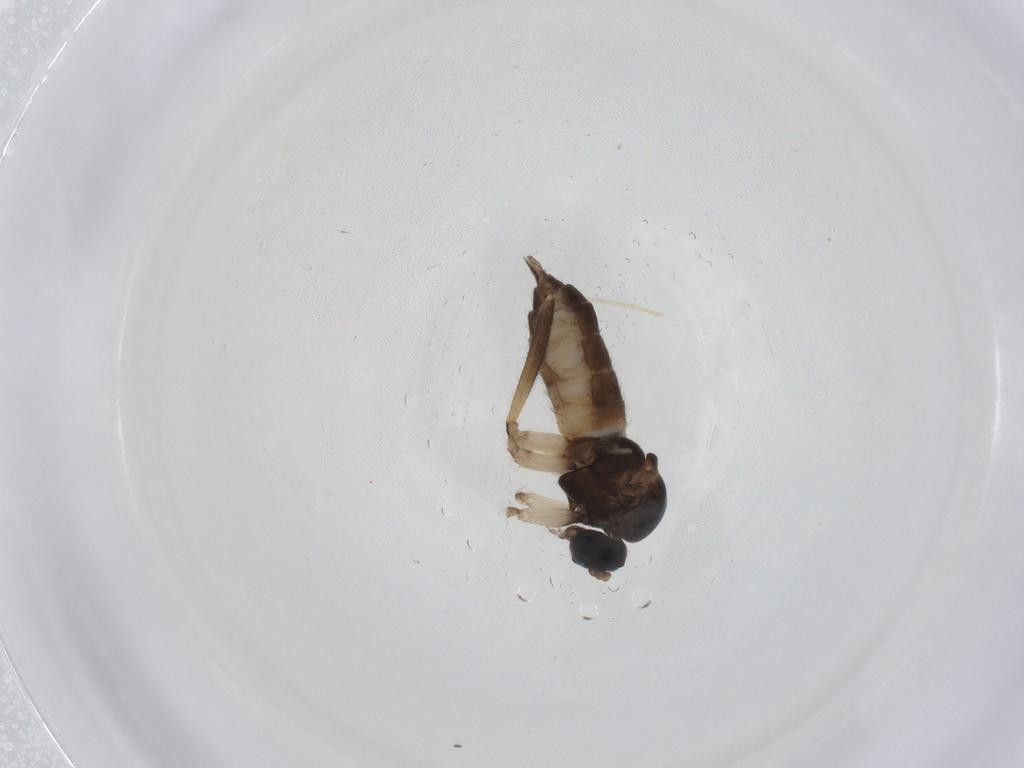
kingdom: Animalia
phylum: Arthropoda
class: Insecta
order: Diptera
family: Sciaridae
